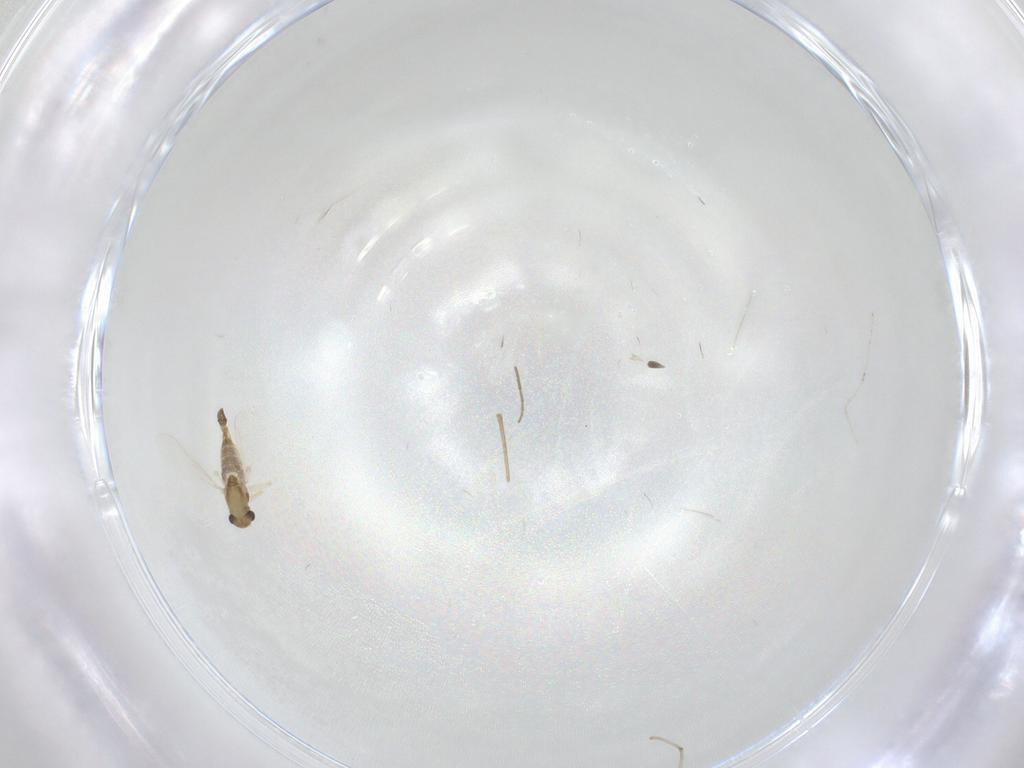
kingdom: Animalia
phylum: Arthropoda
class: Insecta
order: Diptera
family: Chironomidae
